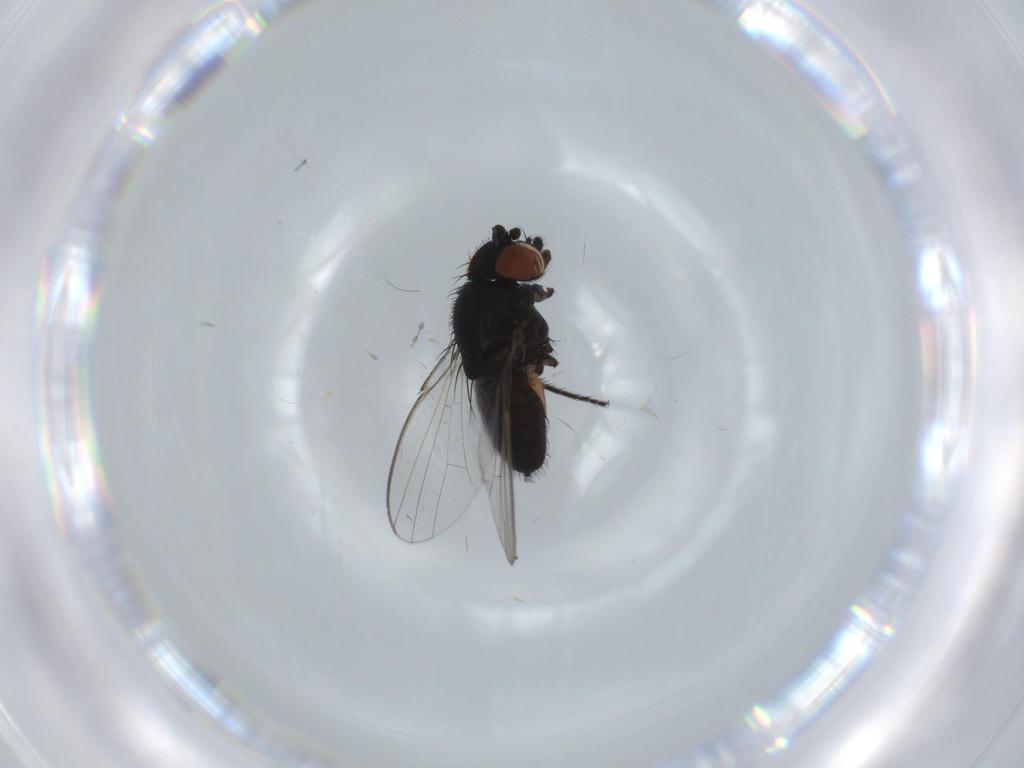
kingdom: Animalia
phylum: Arthropoda
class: Insecta
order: Diptera
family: Milichiidae
